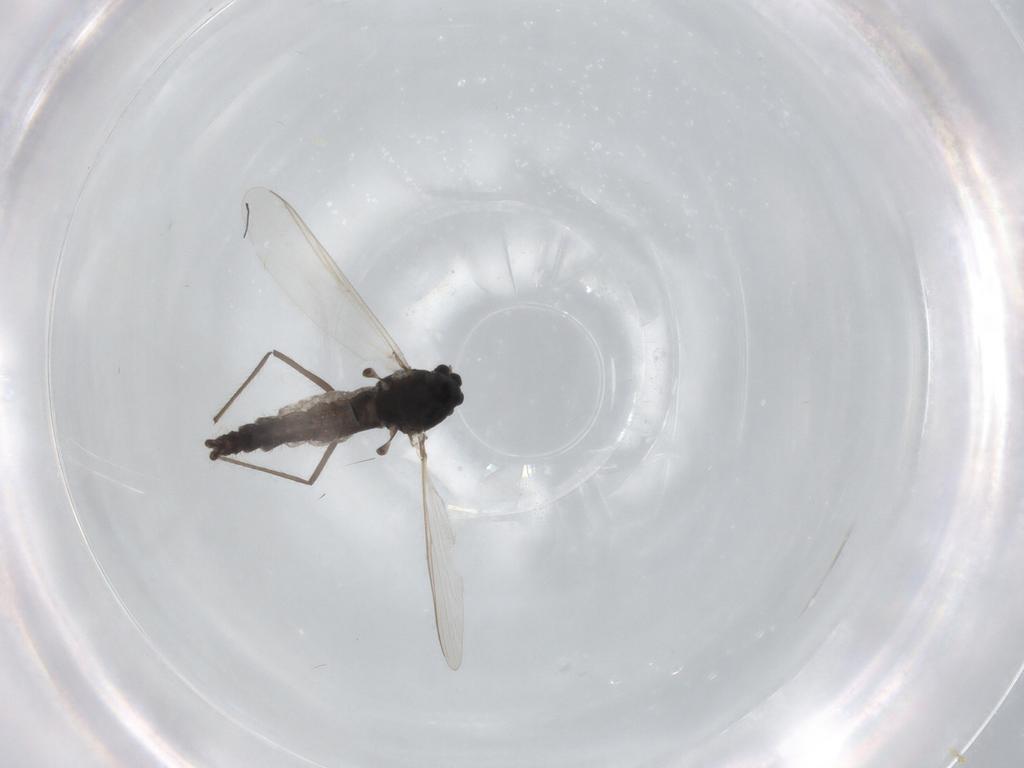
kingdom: Animalia
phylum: Arthropoda
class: Insecta
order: Diptera
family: Chironomidae
